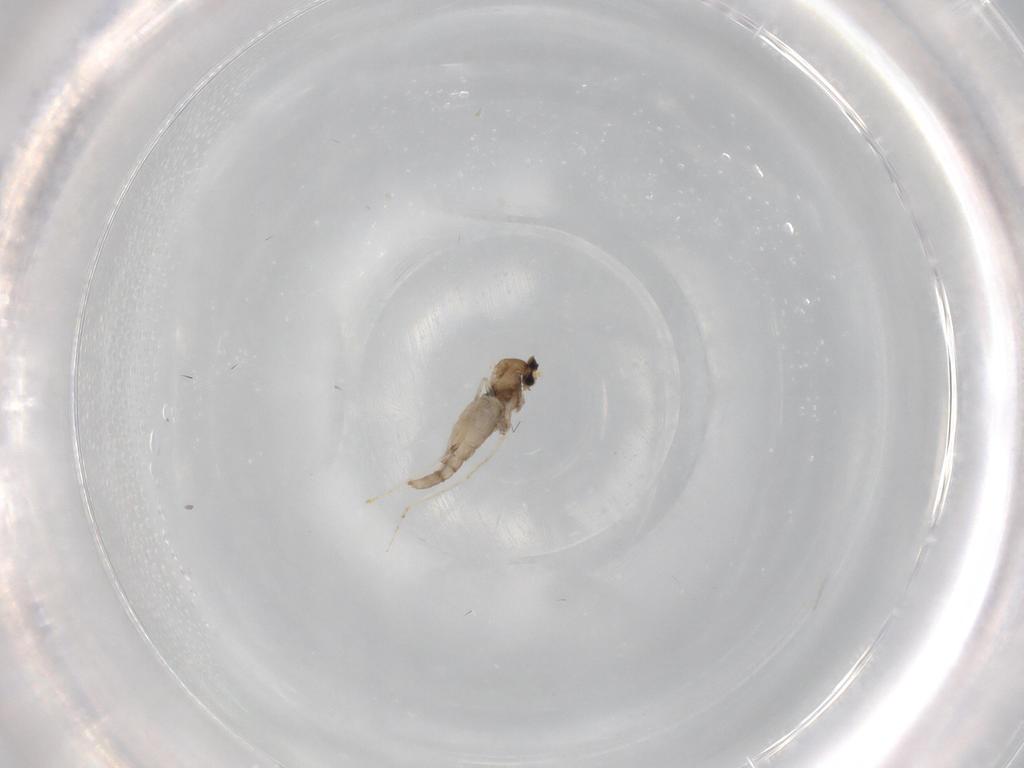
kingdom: Animalia
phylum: Arthropoda
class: Insecta
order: Diptera
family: Cecidomyiidae
